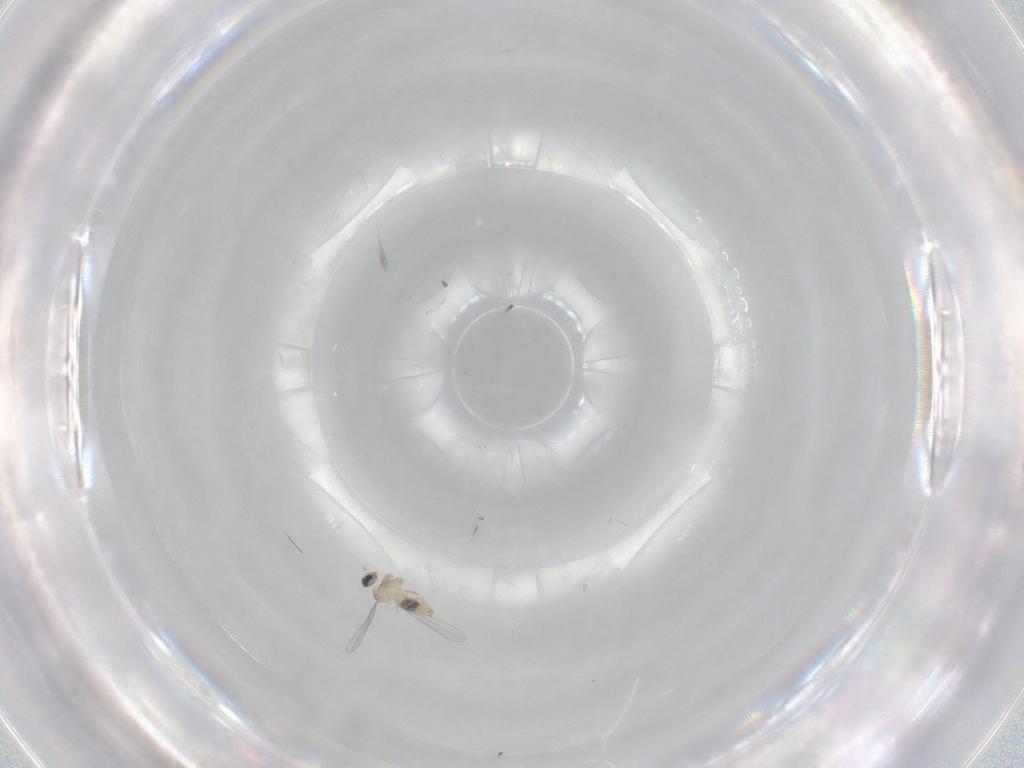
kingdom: Animalia
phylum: Arthropoda
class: Insecta
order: Diptera
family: Cecidomyiidae
